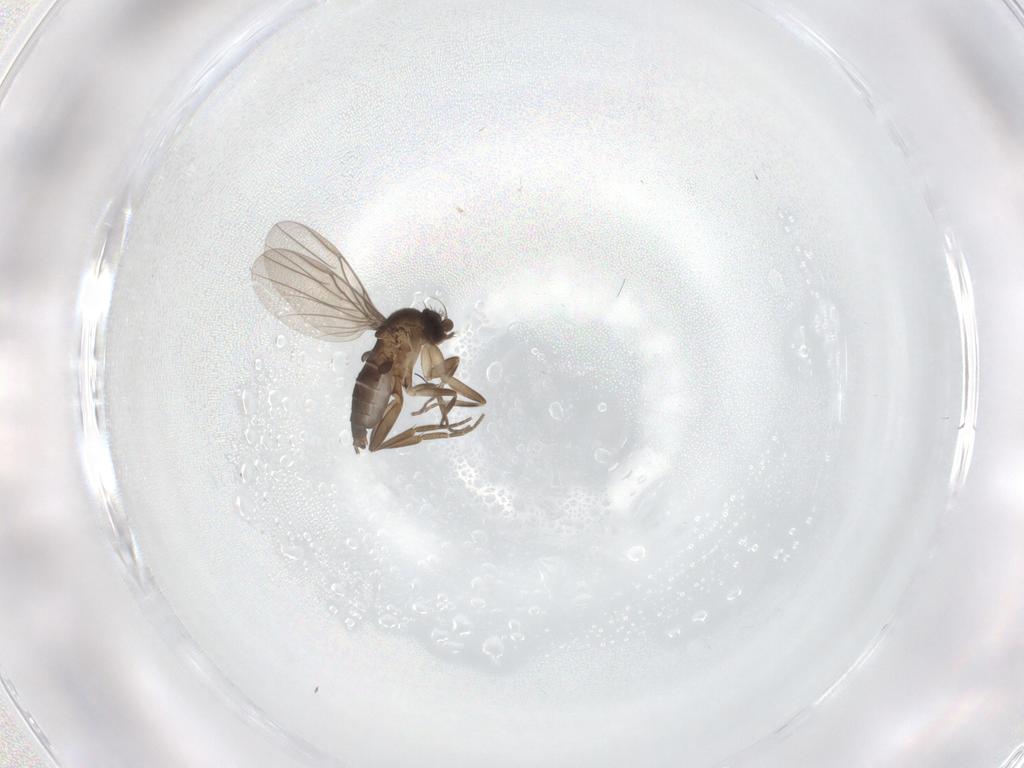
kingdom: Animalia
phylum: Arthropoda
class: Insecta
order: Diptera
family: Phoridae
